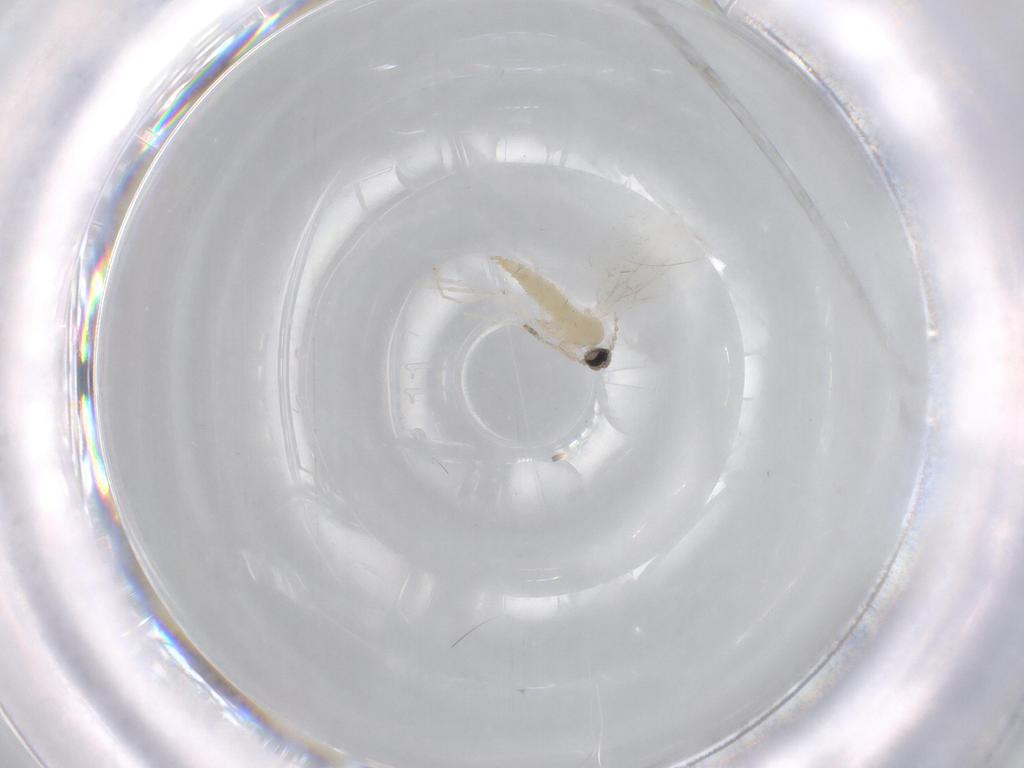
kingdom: Animalia
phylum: Arthropoda
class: Insecta
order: Diptera
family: Cecidomyiidae
